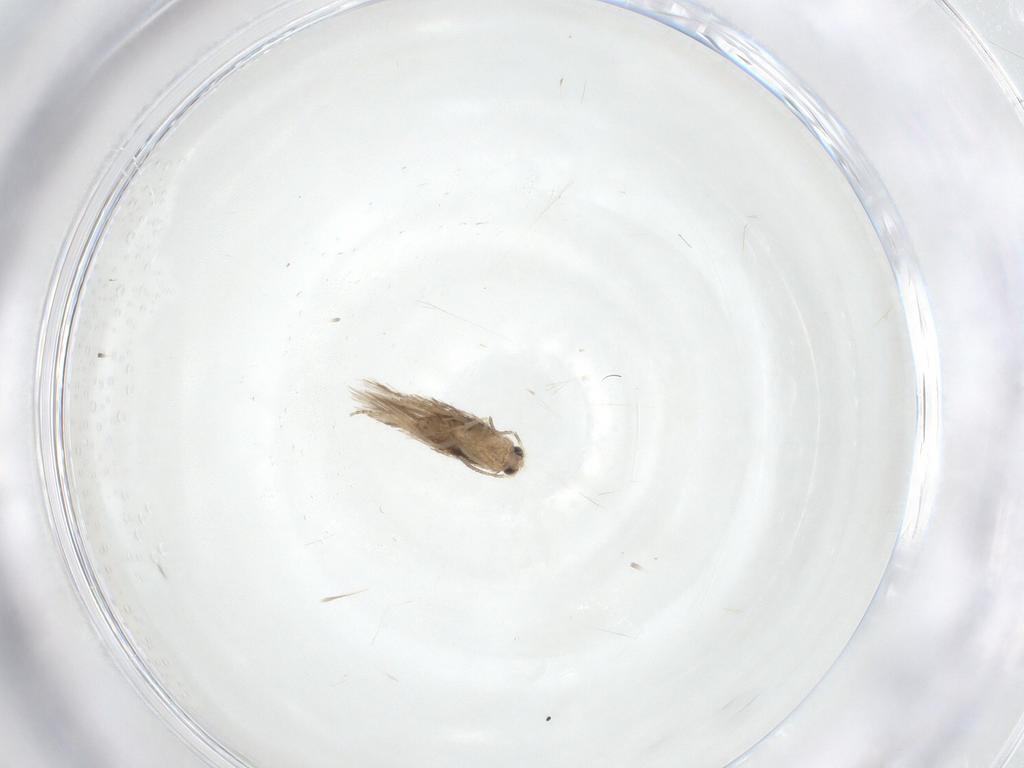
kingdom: Animalia
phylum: Arthropoda
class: Insecta
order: Lepidoptera
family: Nepticulidae
